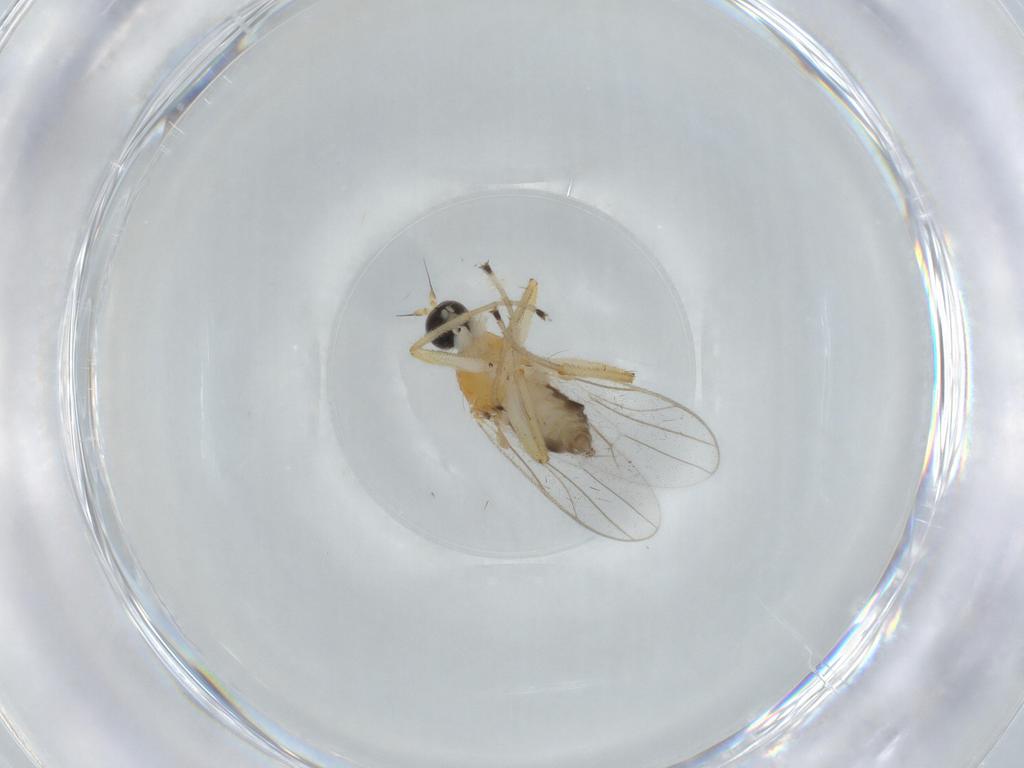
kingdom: Animalia
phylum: Arthropoda
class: Insecta
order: Diptera
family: Hybotidae
